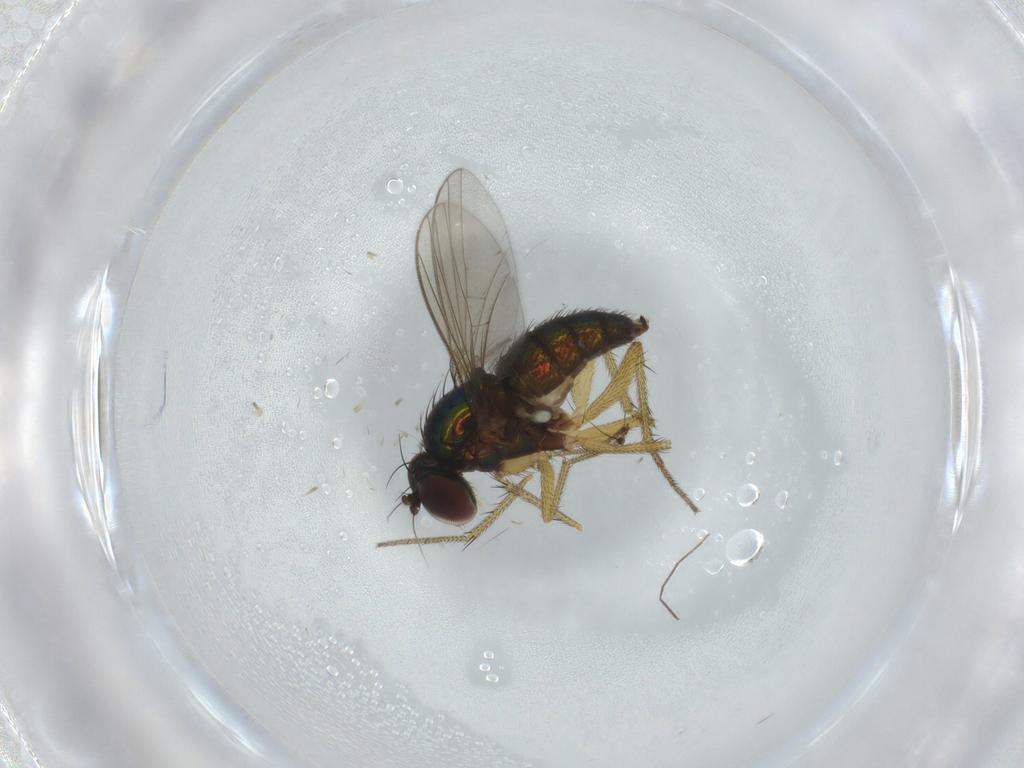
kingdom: Animalia
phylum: Arthropoda
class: Insecta
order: Diptera
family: Dolichopodidae
